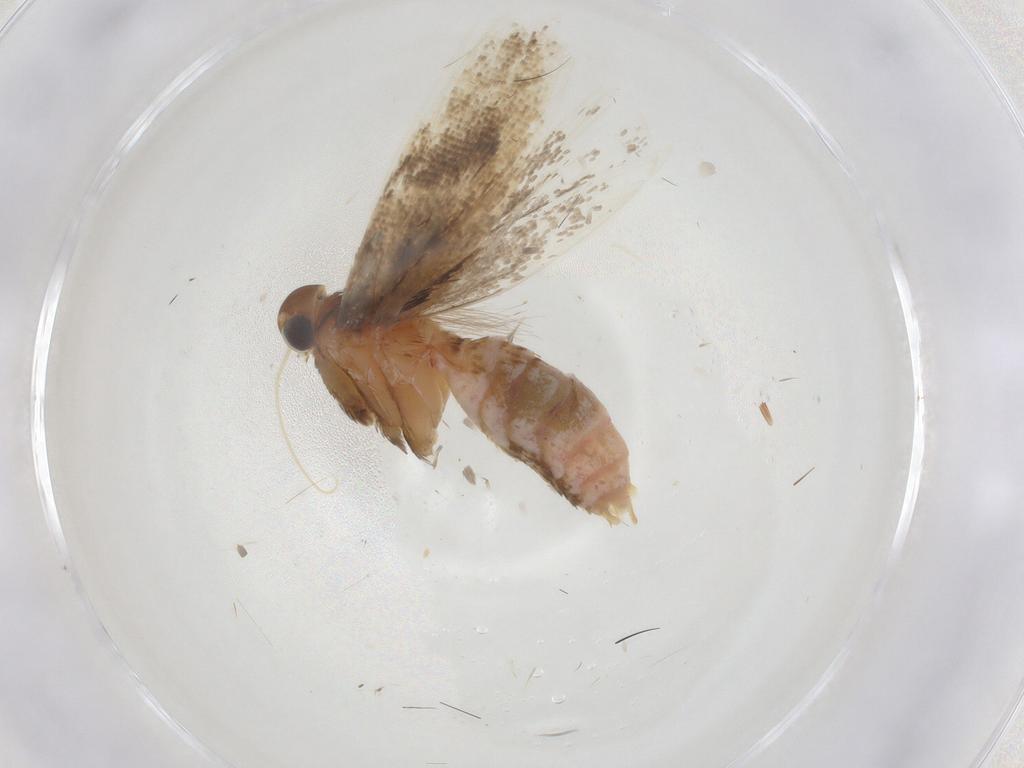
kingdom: Animalia
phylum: Arthropoda
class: Insecta
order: Lepidoptera
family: Gelechiidae
